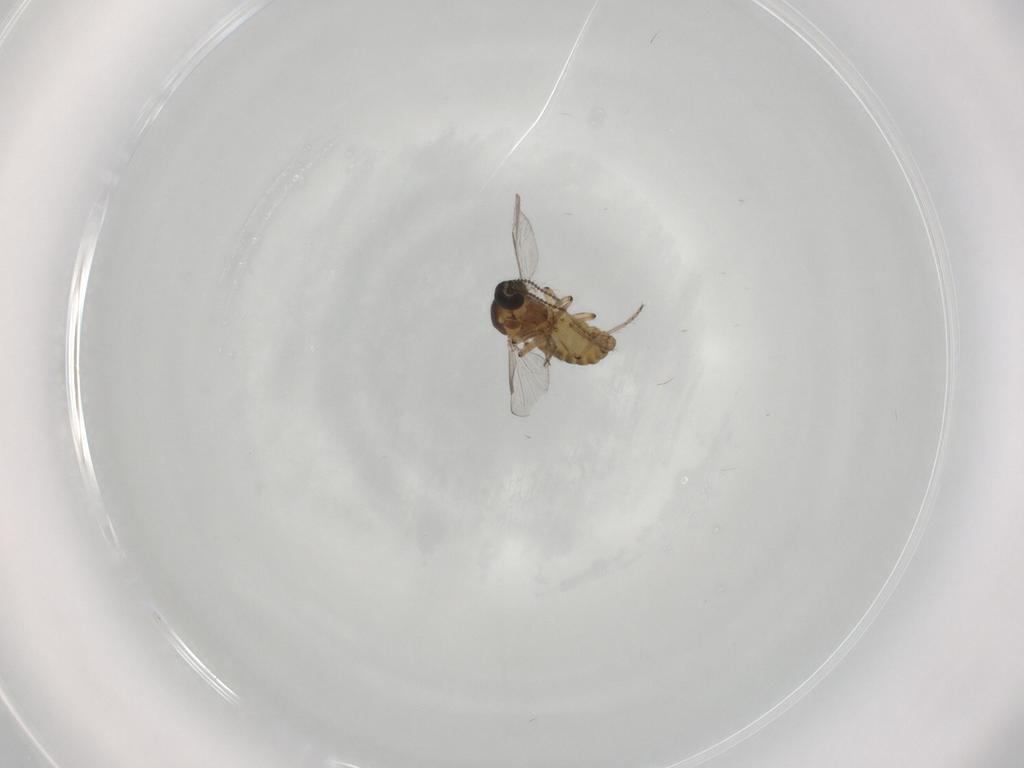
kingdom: Animalia
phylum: Arthropoda
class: Insecta
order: Diptera
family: Ceratopogonidae
